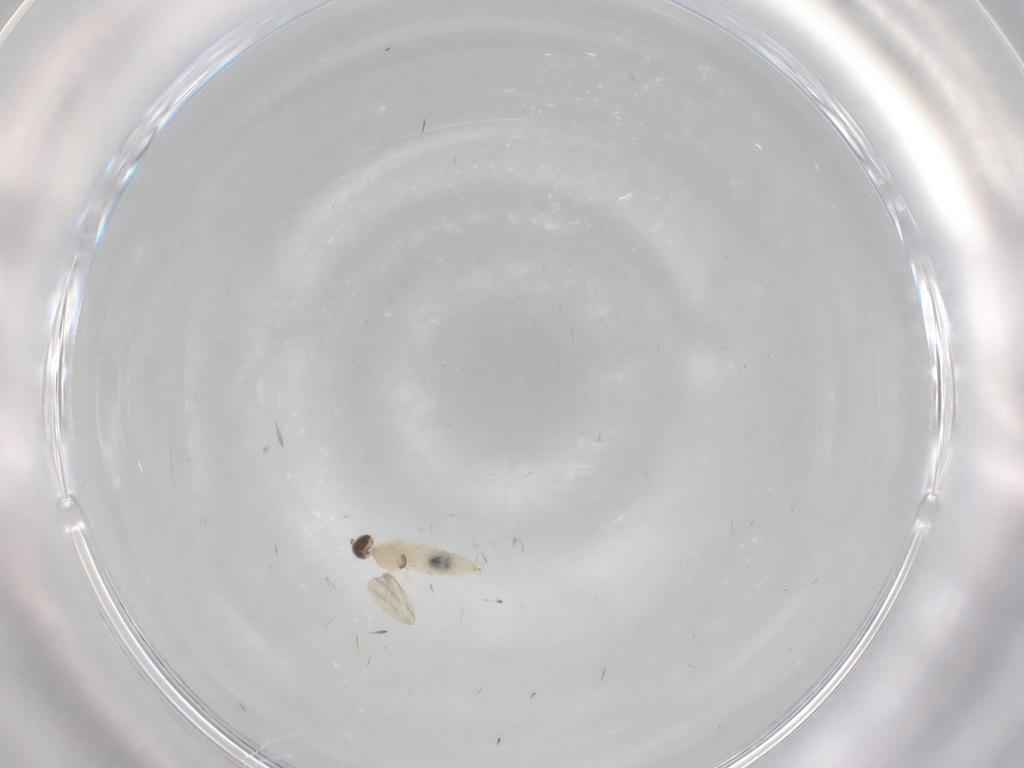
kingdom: Animalia
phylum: Arthropoda
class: Insecta
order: Diptera
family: Cecidomyiidae
